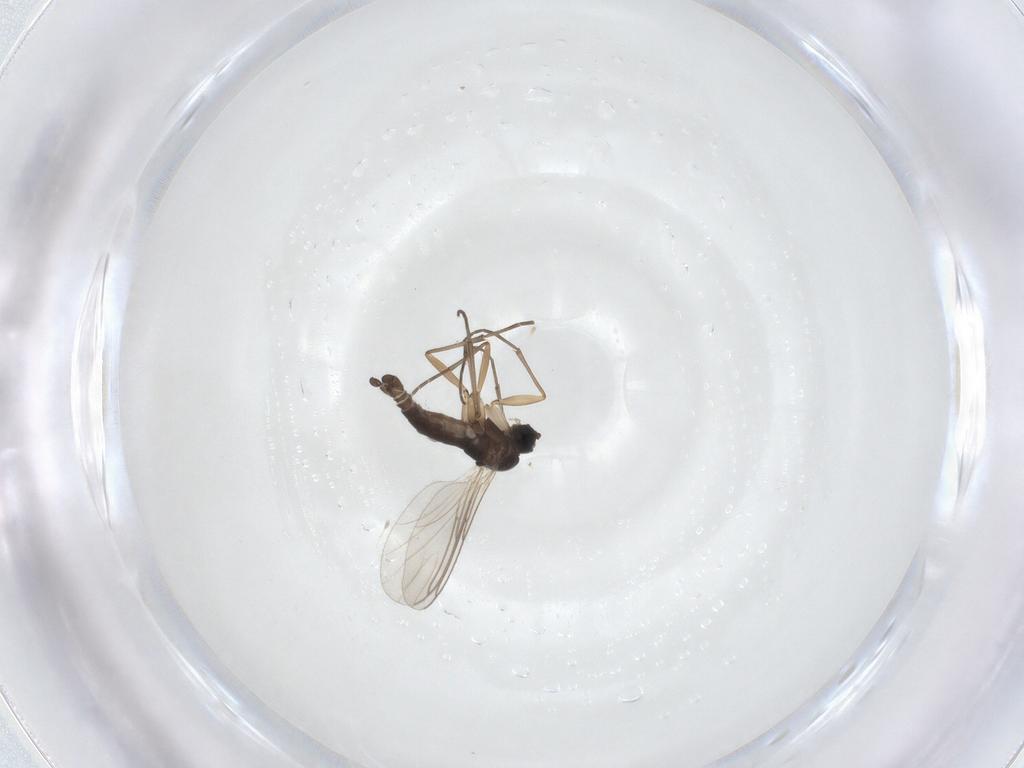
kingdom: Animalia
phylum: Arthropoda
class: Insecta
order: Diptera
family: Sciaridae
